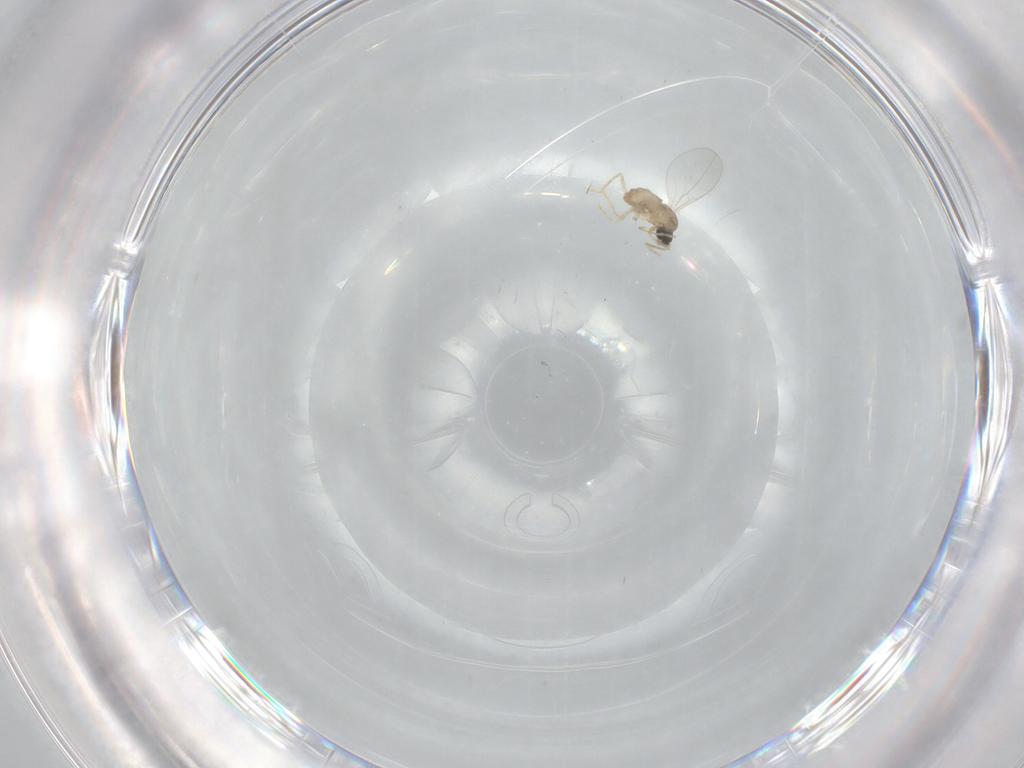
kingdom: Animalia
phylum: Arthropoda
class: Insecta
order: Diptera
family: Cecidomyiidae
